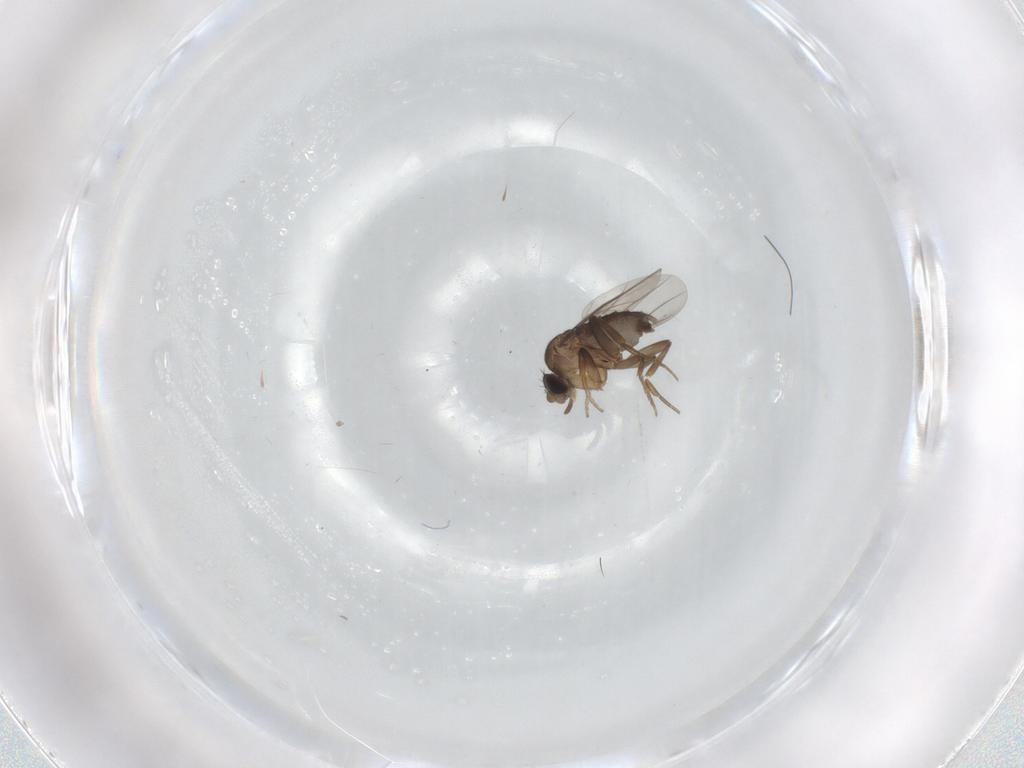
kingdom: Animalia
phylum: Arthropoda
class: Insecta
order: Diptera
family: Phoridae
